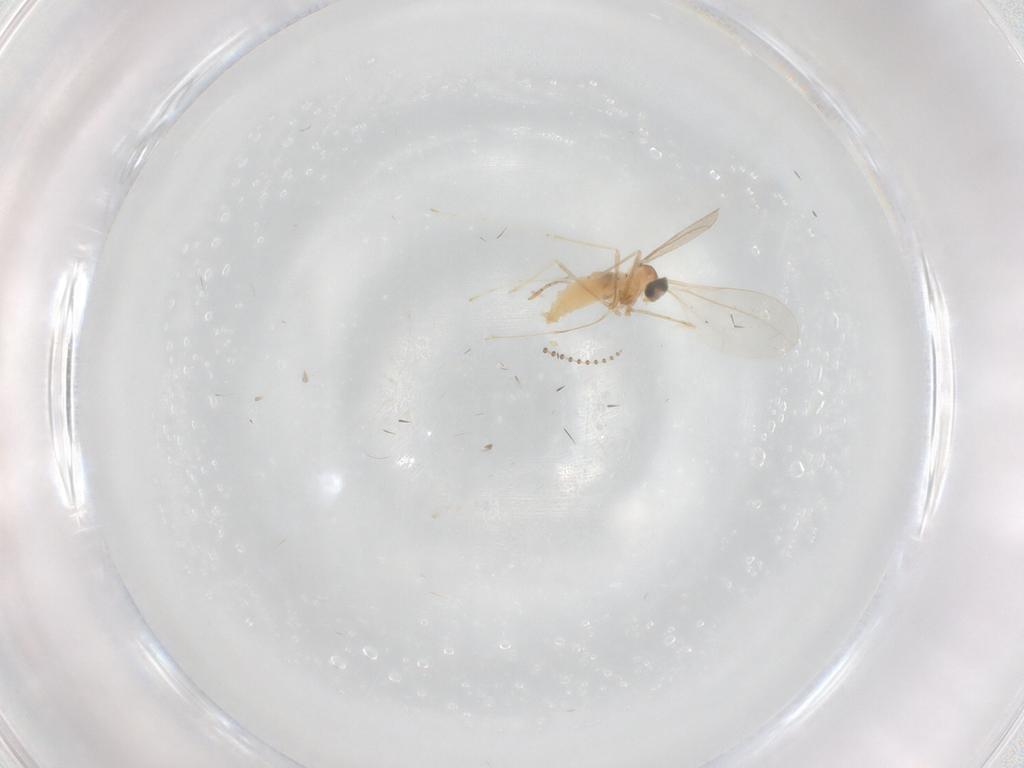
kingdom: Animalia
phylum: Arthropoda
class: Insecta
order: Diptera
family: Psychodidae
